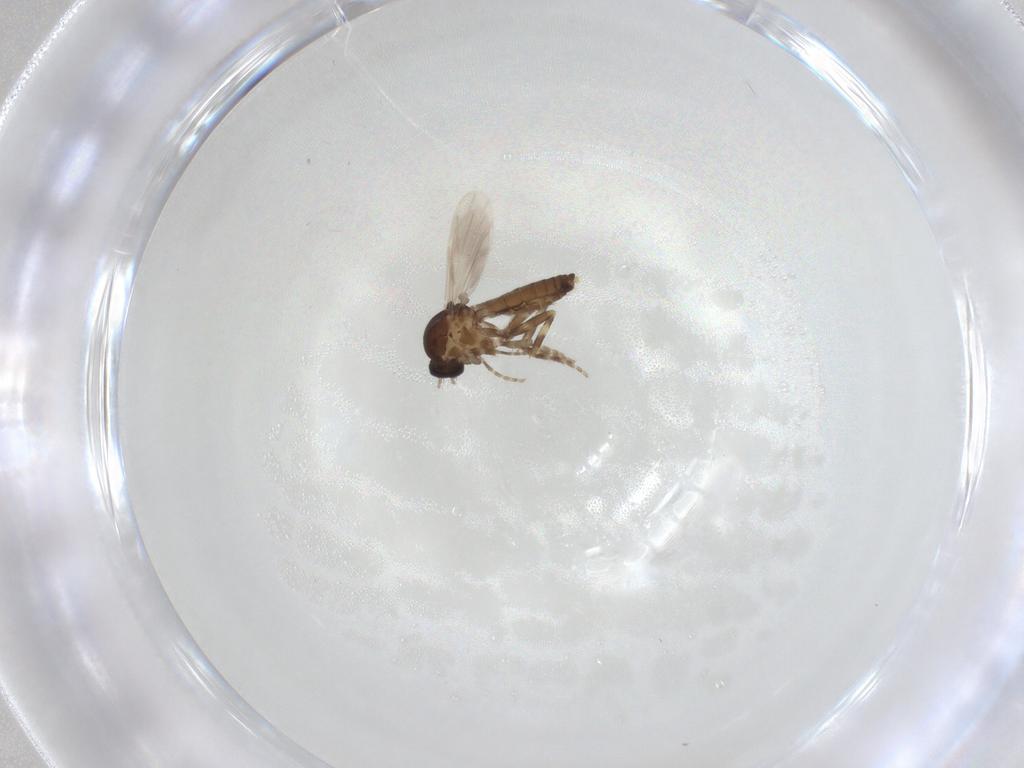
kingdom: Animalia
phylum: Arthropoda
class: Insecta
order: Diptera
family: Ceratopogonidae
